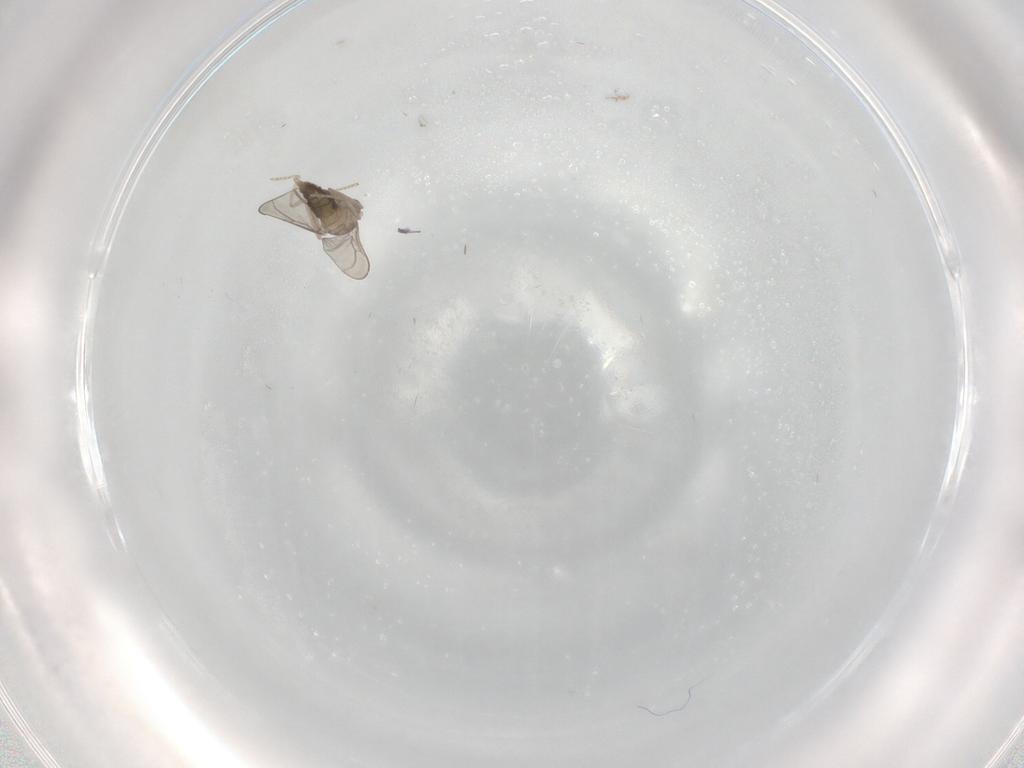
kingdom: Animalia
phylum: Arthropoda
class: Insecta
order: Diptera
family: Cecidomyiidae
